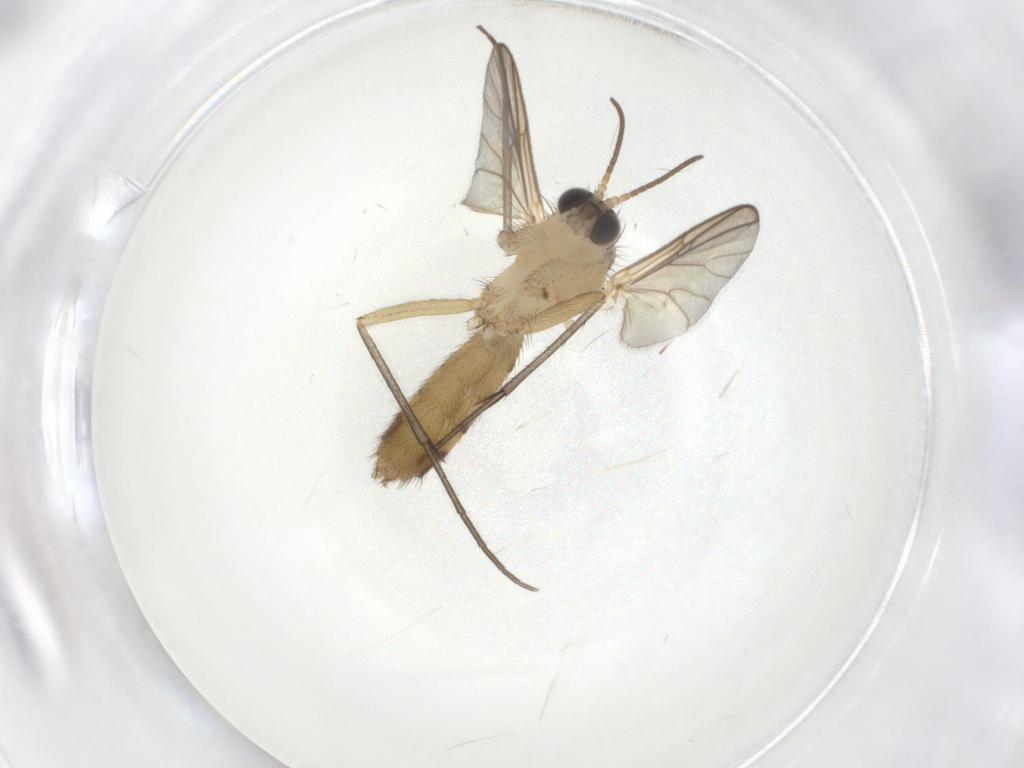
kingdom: Animalia
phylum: Arthropoda
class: Insecta
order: Diptera
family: Mycetophilidae
